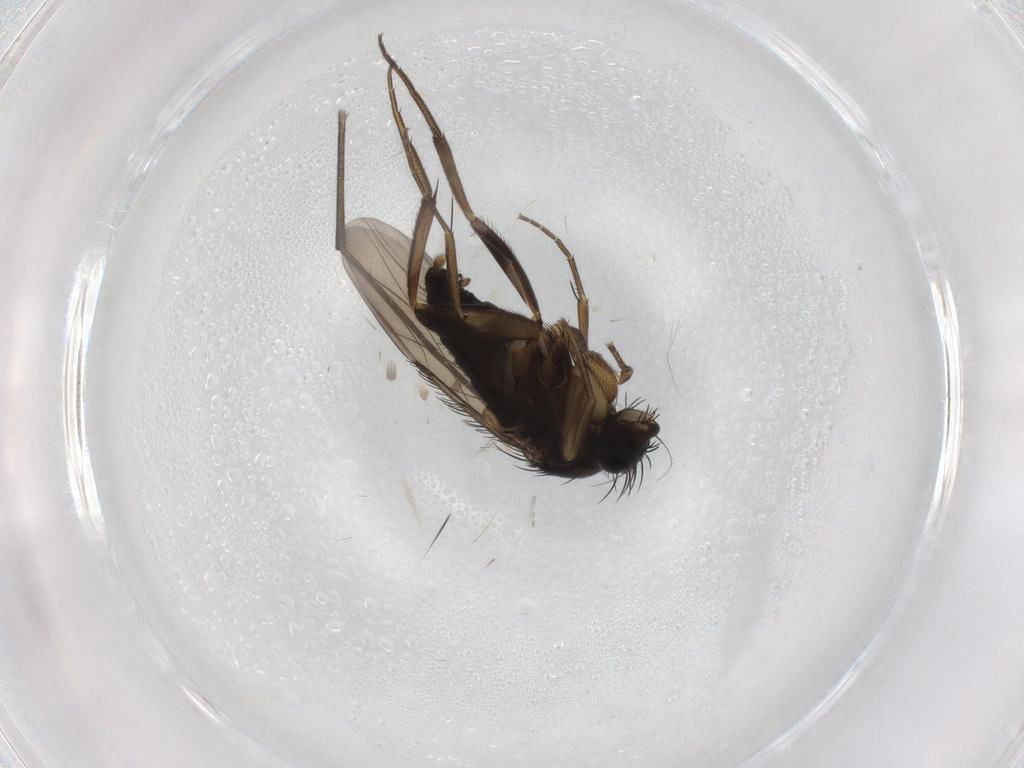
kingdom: Animalia
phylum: Arthropoda
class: Insecta
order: Diptera
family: Phoridae
